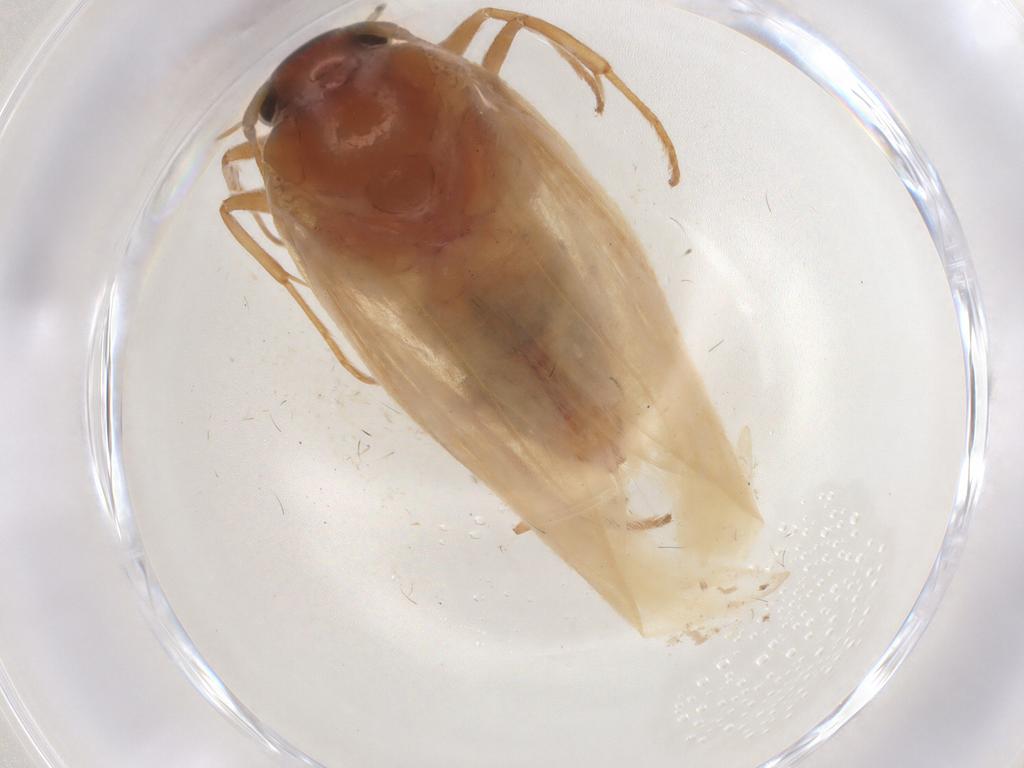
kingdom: Animalia
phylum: Arthropoda
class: Insecta
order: Lepidoptera
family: Scythrididae
